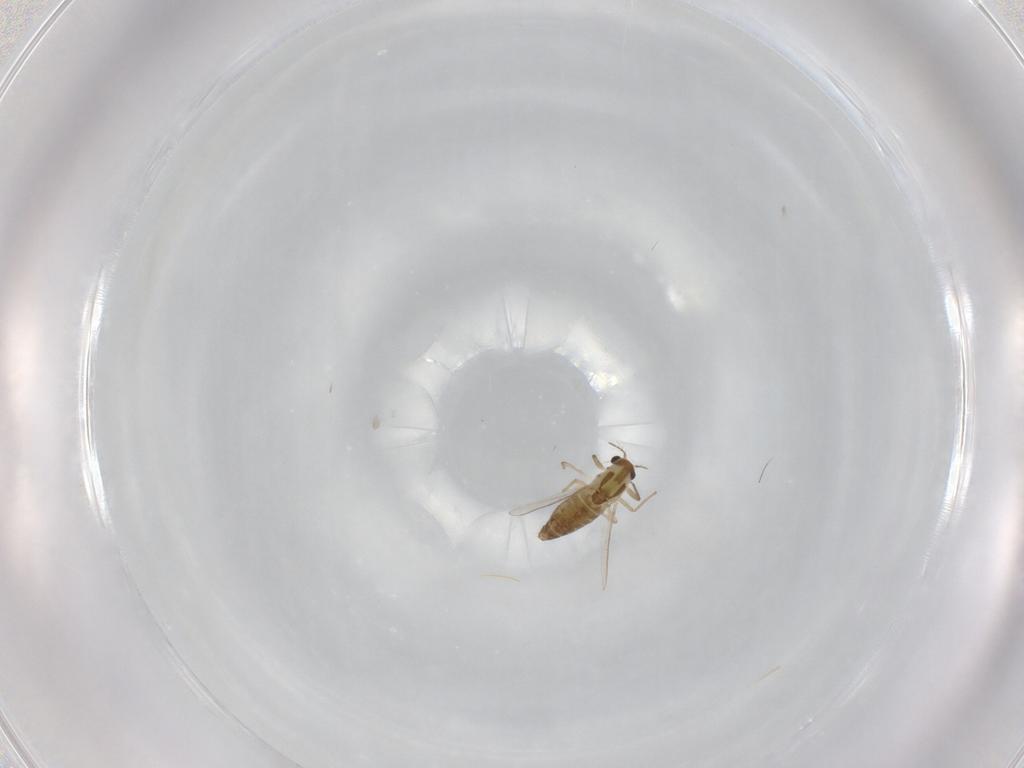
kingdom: Animalia
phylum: Arthropoda
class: Insecta
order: Diptera
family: Chironomidae
